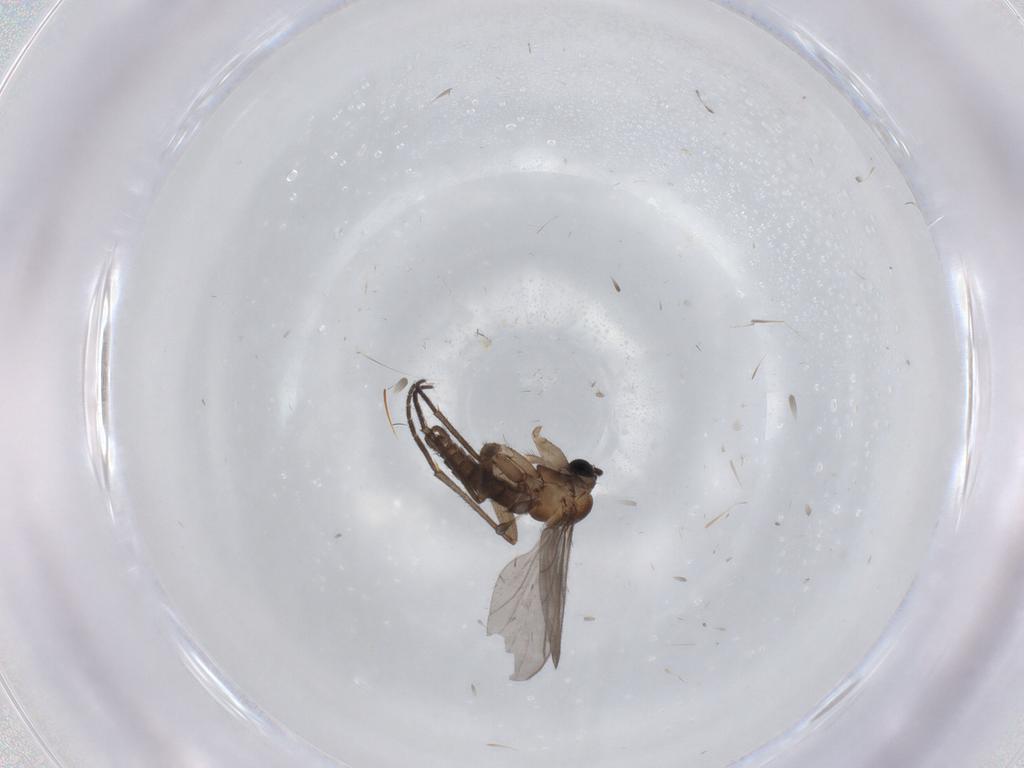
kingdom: Animalia
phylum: Arthropoda
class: Insecta
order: Diptera
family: Sciaridae
